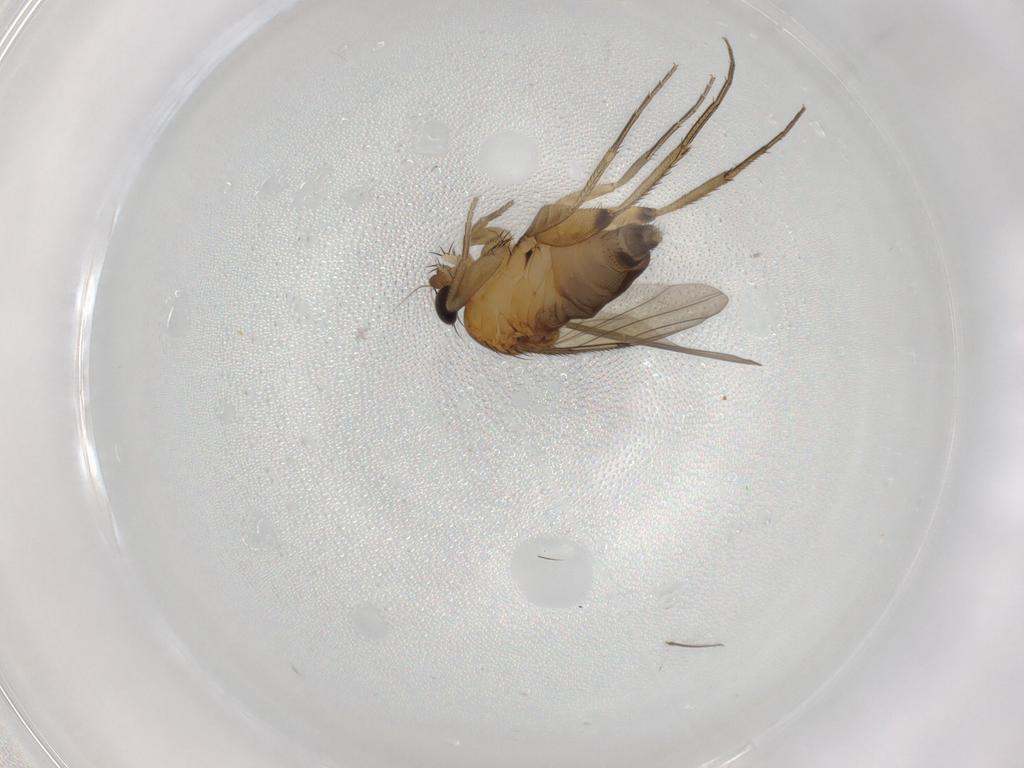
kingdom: Animalia
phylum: Arthropoda
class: Insecta
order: Diptera
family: Phoridae
